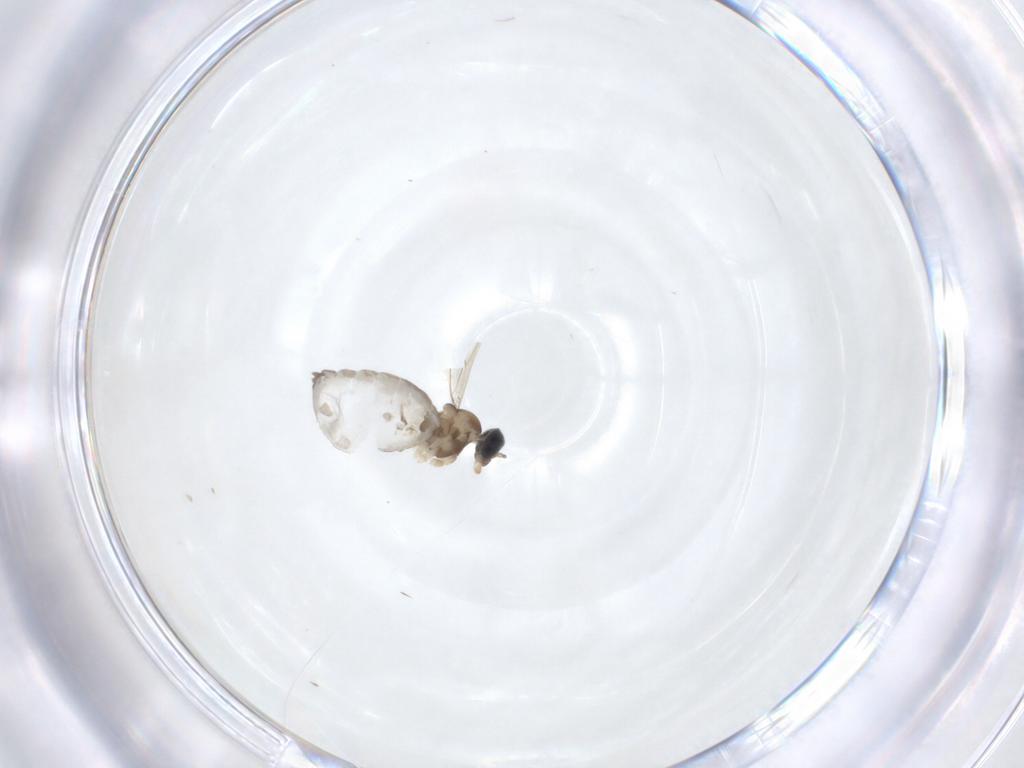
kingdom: Animalia
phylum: Arthropoda
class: Insecta
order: Diptera
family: Cecidomyiidae
